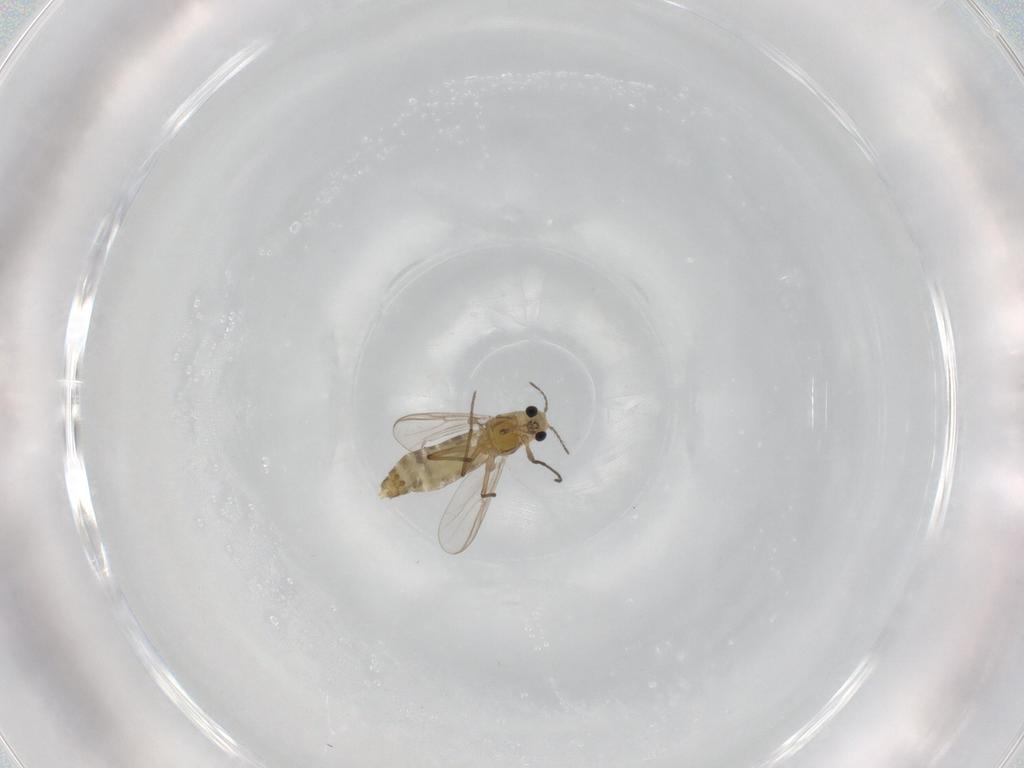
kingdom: Animalia
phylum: Arthropoda
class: Insecta
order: Diptera
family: Chironomidae
